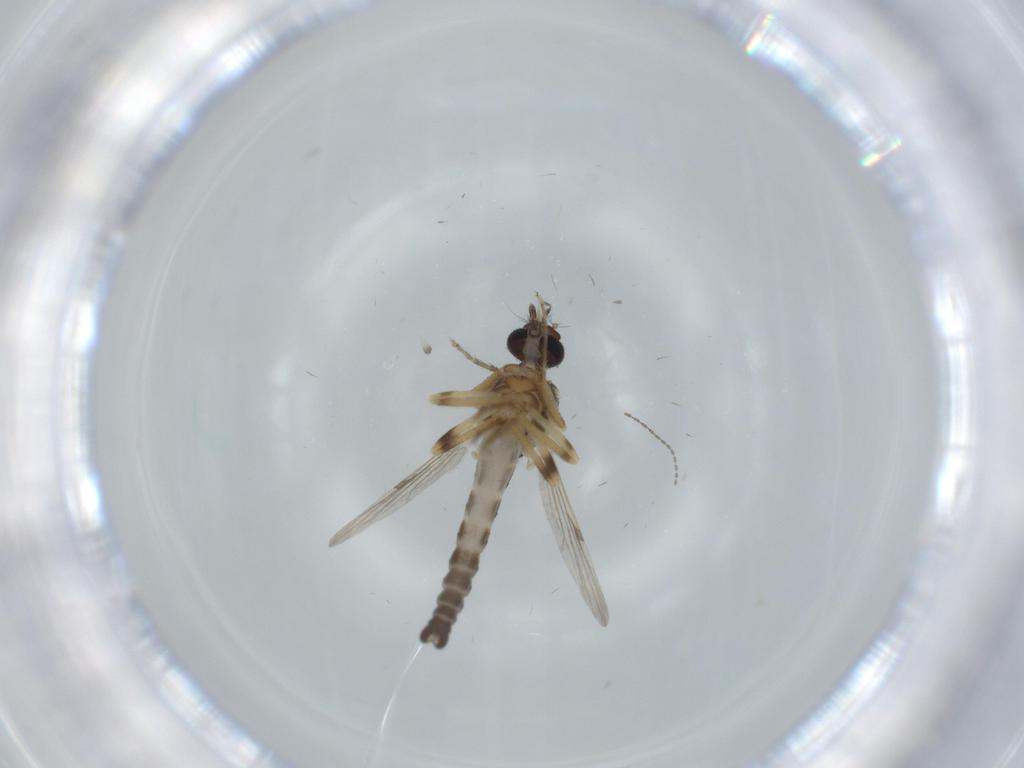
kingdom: Animalia
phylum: Arthropoda
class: Insecta
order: Diptera
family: Ceratopogonidae
